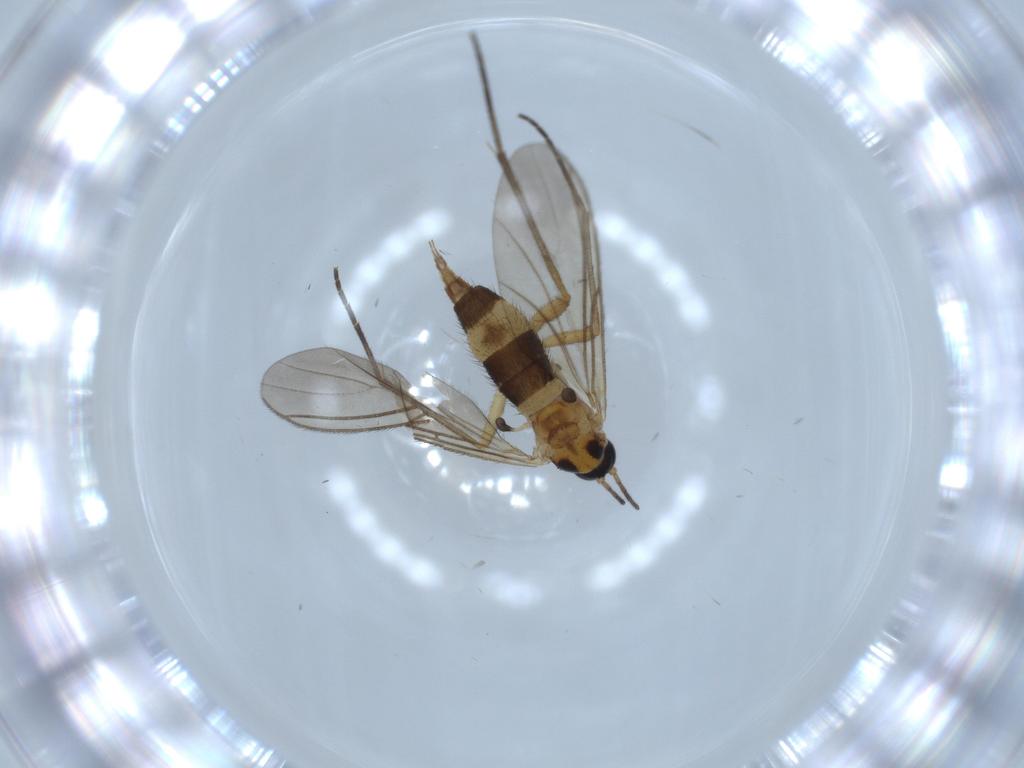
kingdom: Animalia
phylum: Arthropoda
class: Insecta
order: Diptera
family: Sciaridae
